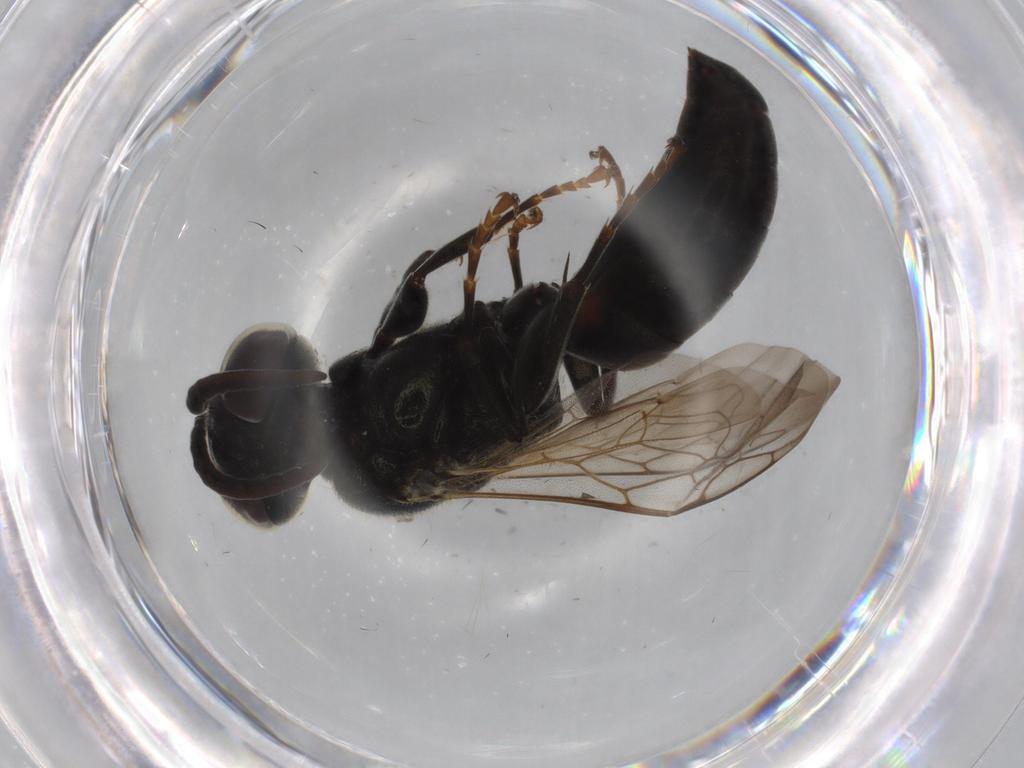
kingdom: Animalia
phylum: Arthropoda
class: Insecta
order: Hymenoptera
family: Scelionidae
